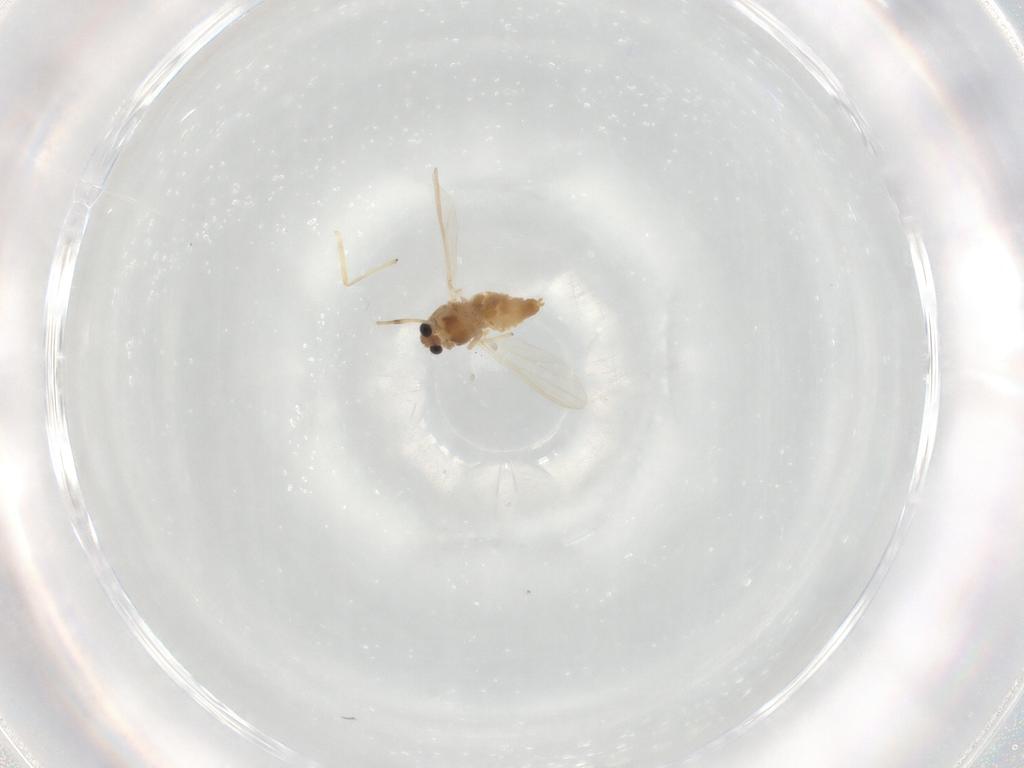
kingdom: Animalia
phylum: Arthropoda
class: Insecta
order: Diptera
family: Chironomidae
